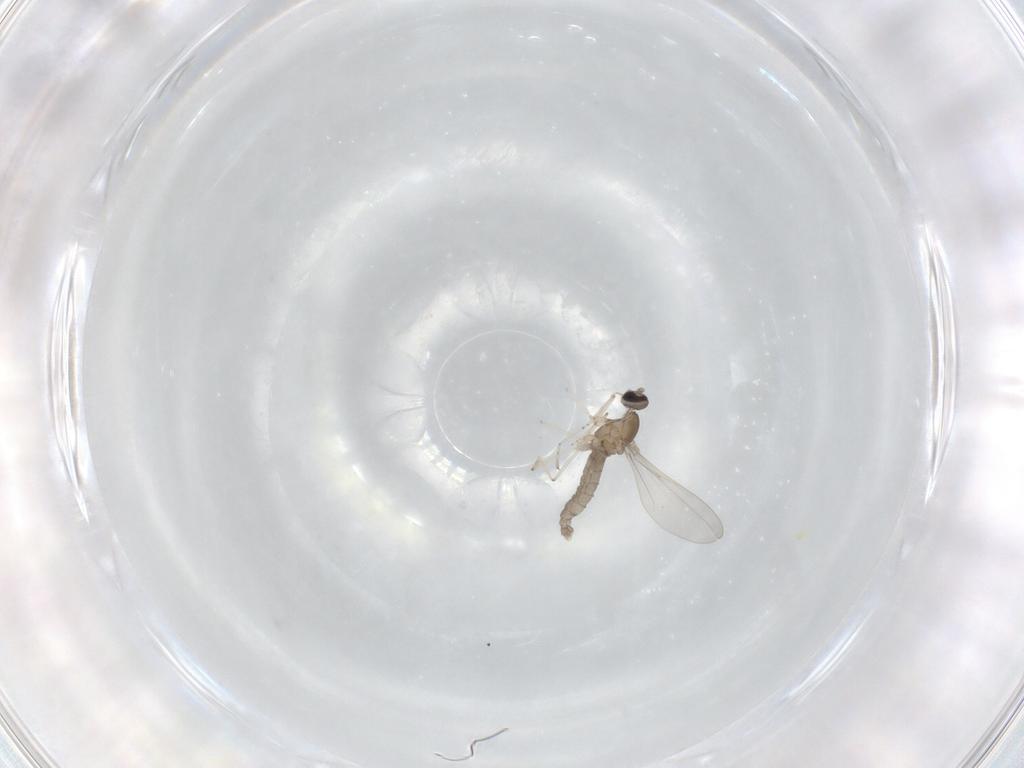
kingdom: Animalia
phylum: Arthropoda
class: Insecta
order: Diptera
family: Cecidomyiidae
